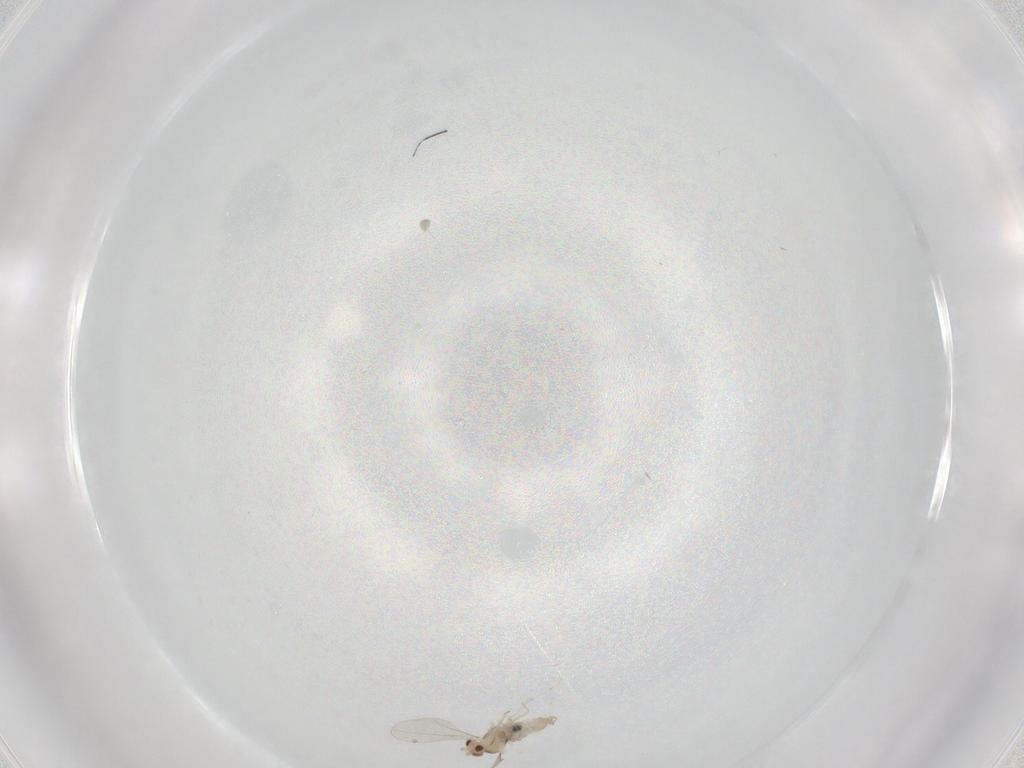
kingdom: Animalia
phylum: Arthropoda
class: Insecta
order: Diptera
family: Cecidomyiidae
